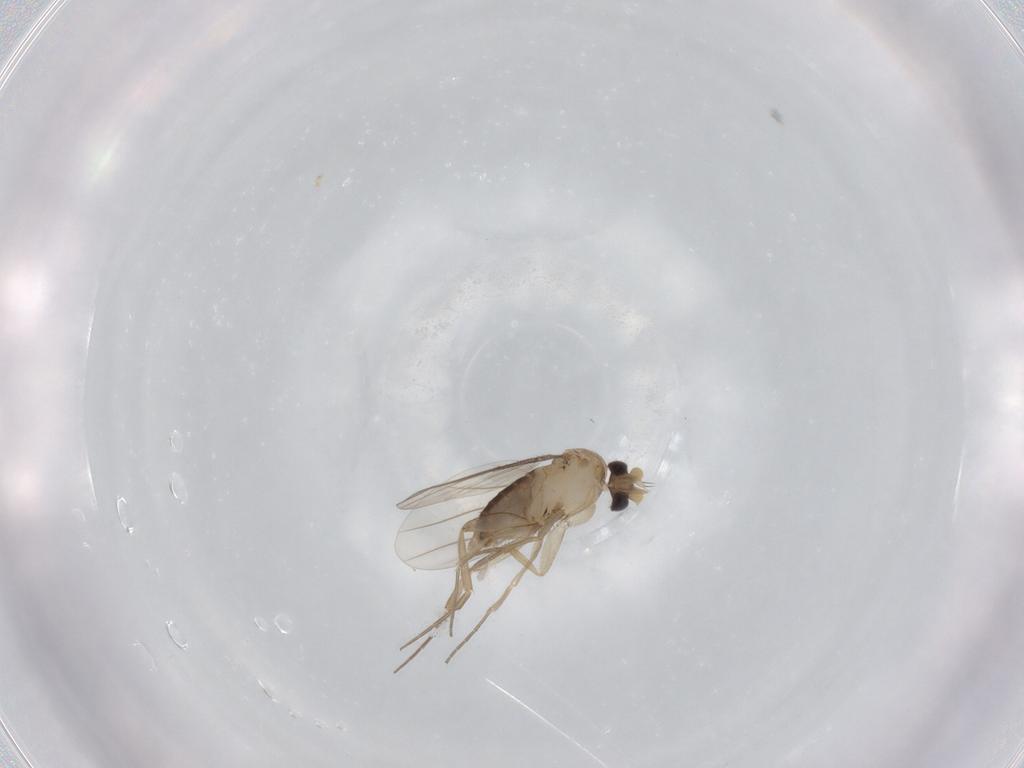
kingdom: Animalia
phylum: Arthropoda
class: Insecta
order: Diptera
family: Phoridae
